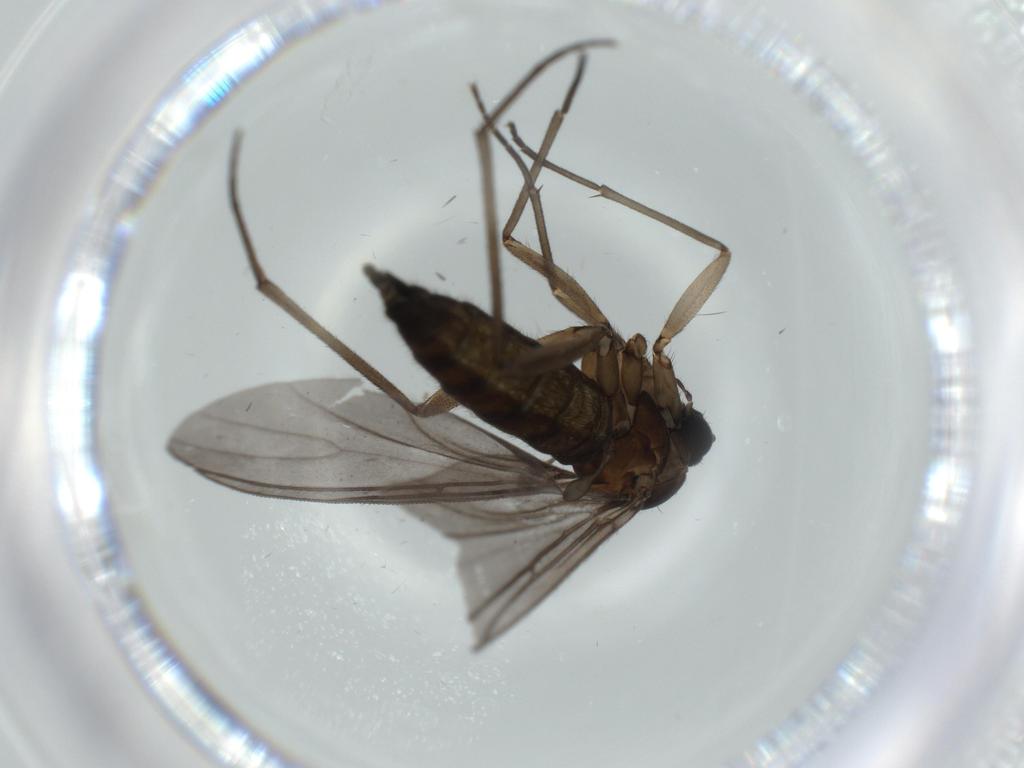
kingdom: Animalia
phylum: Arthropoda
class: Insecta
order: Diptera
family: Sciaridae
